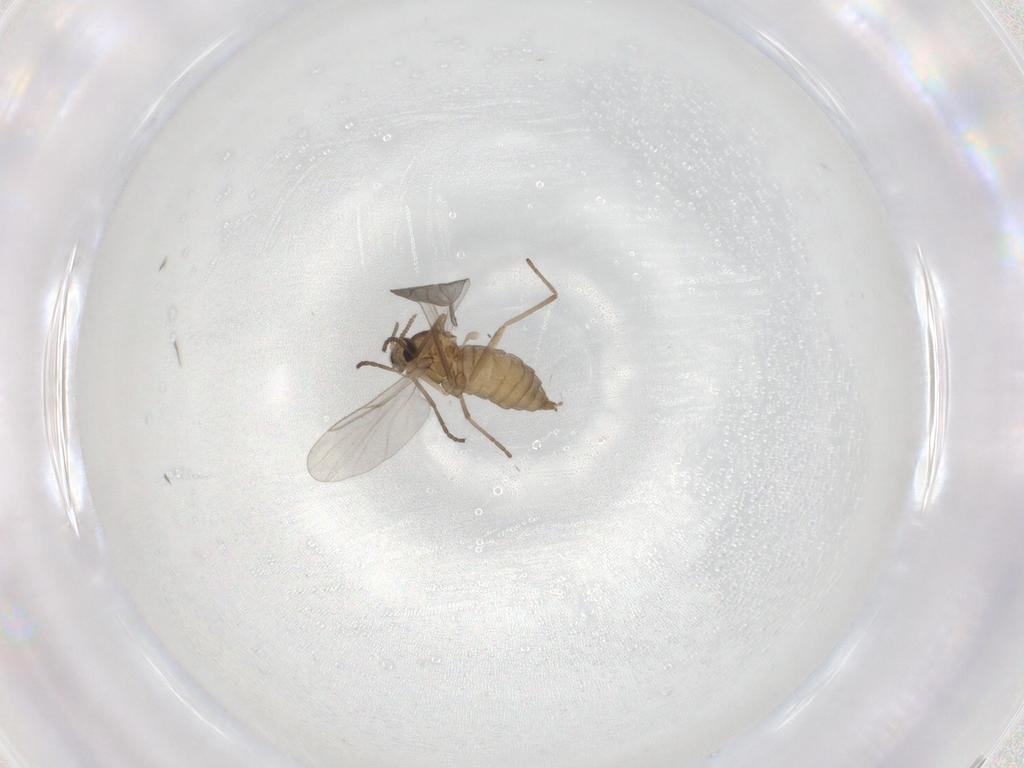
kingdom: Animalia
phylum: Arthropoda
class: Insecta
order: Diptera
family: Cecidomyiidae
